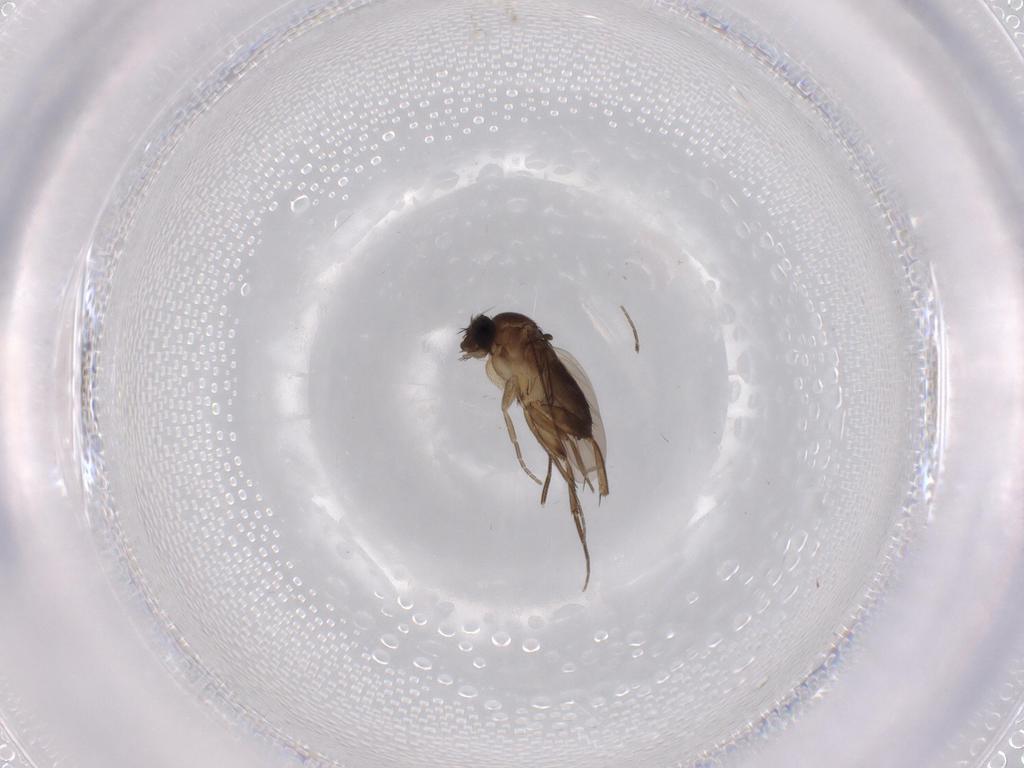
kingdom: Animalia
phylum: Arthropoda
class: Insecta
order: Diptera
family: Phoridae
